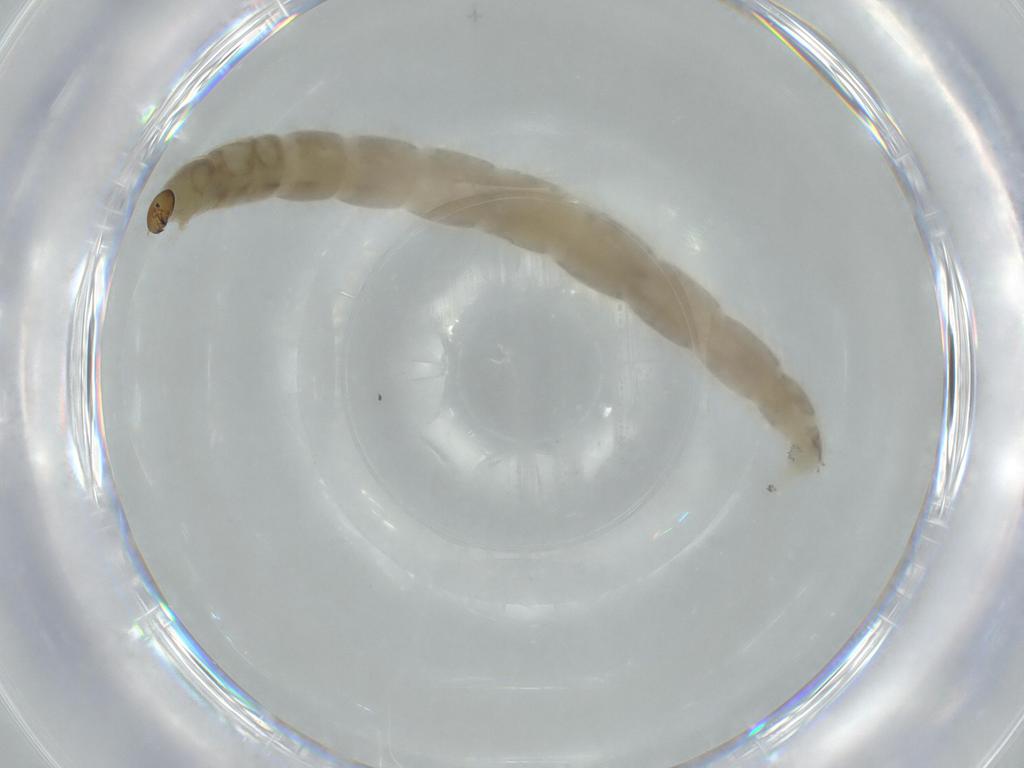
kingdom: Animalia
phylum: Arthropoda
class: Insecta
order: Diptera
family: Chironomidae
